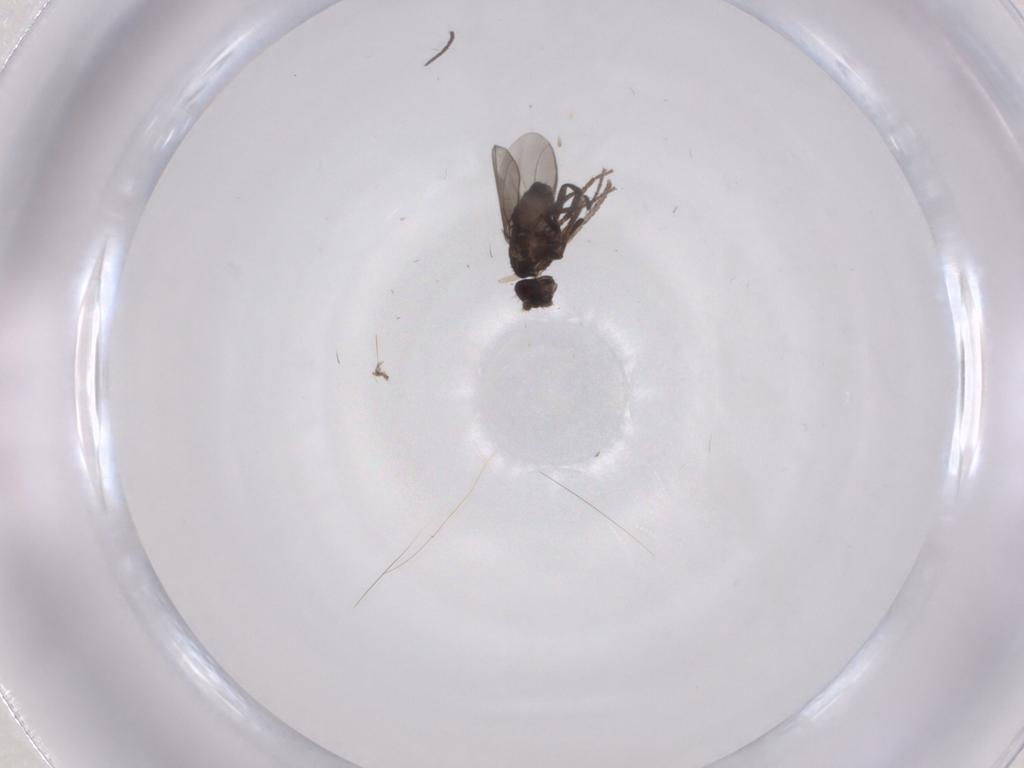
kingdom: Animalia
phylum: Arthropoda
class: Insecta
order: Diptera
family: Sphaeroceridae
